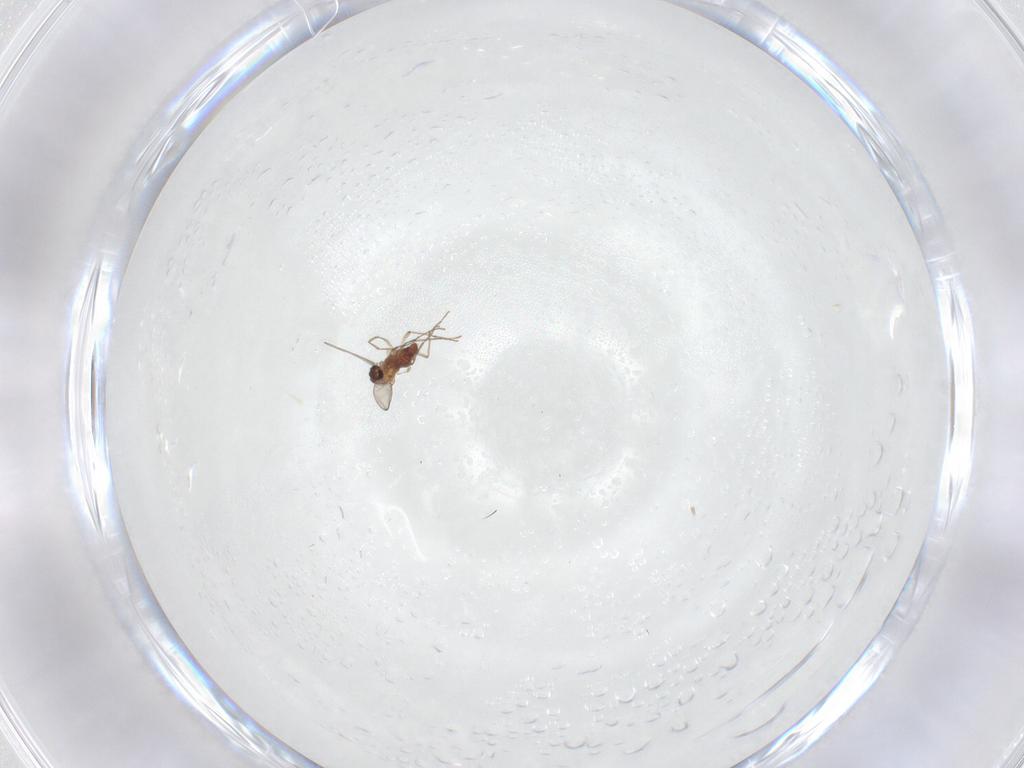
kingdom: Animalia
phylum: Arthropoda
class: Insecta
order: Diptera
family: Chironomidae
